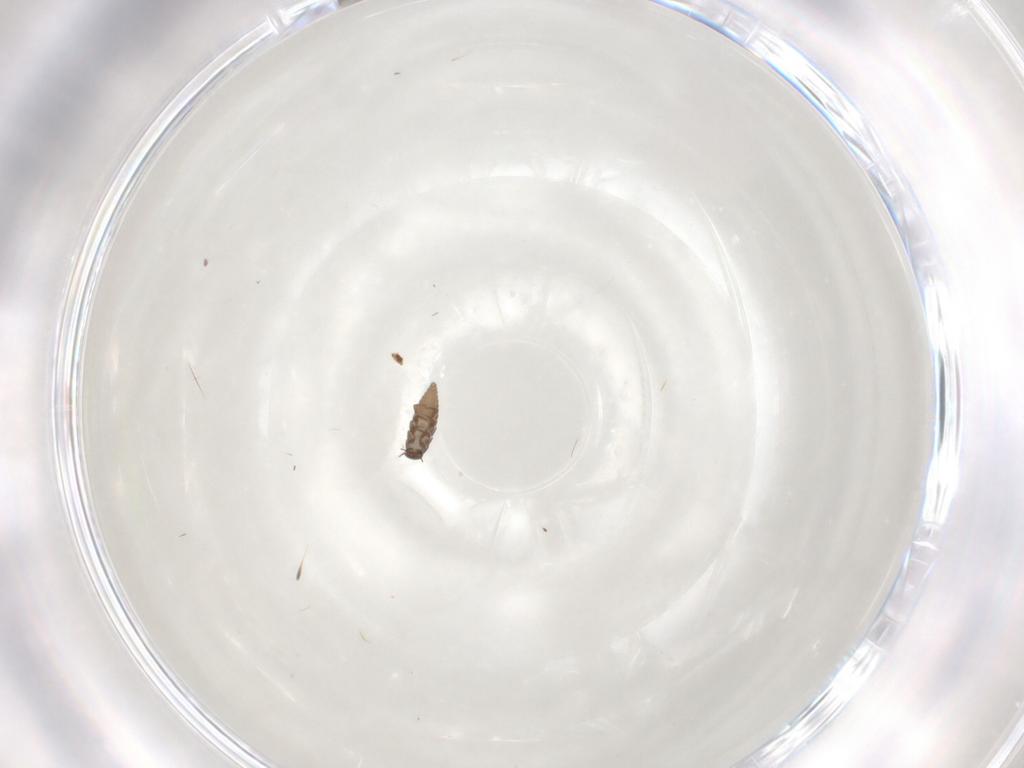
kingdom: Animalia
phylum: Arthropoda
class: Insecta
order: Coleoptera
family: Meloidae
